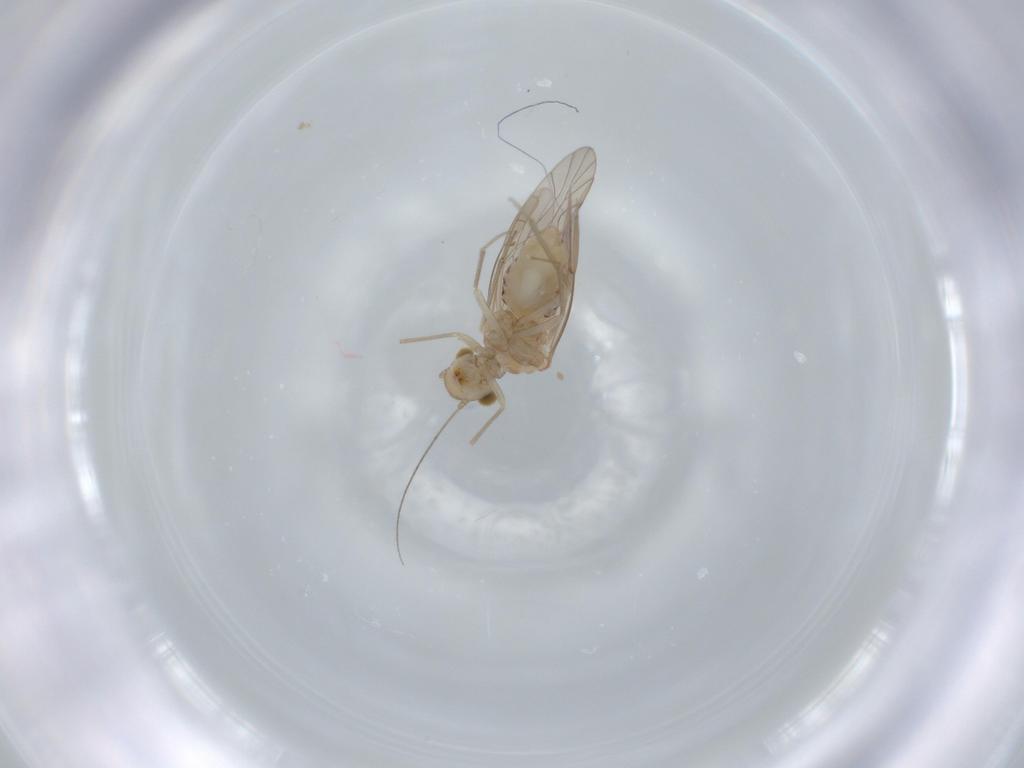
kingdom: Animalia
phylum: Arthropoda
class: Insecta
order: Psocodea
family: Lachesillidae
